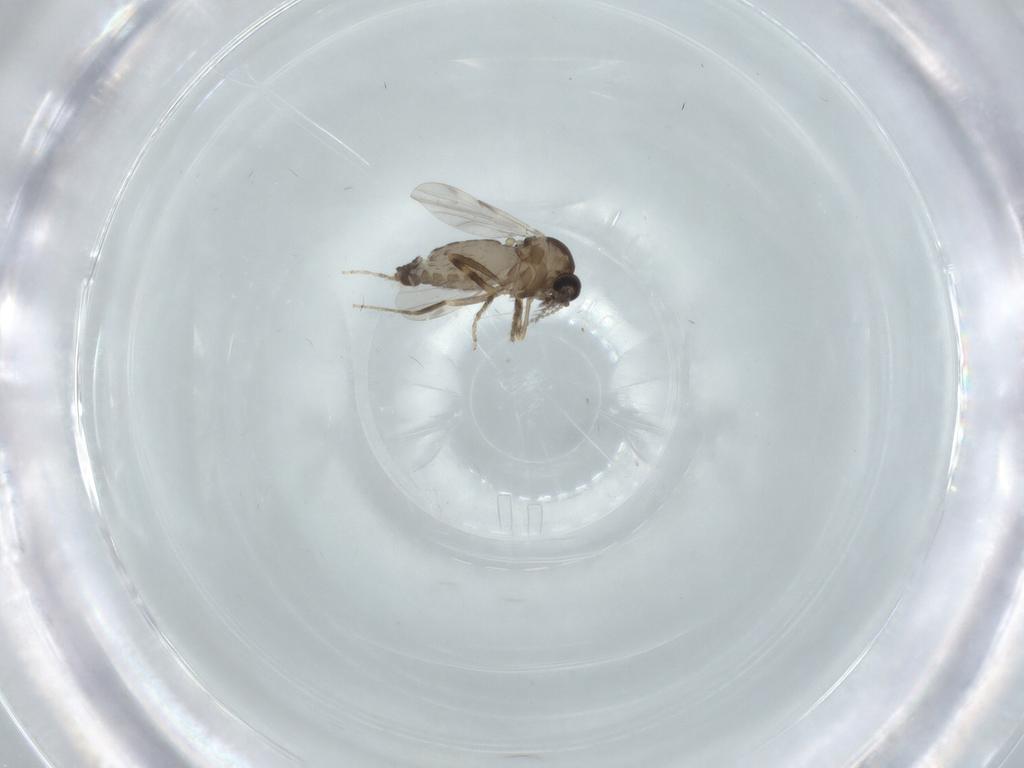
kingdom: Animalia
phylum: Arthropoda
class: Insecta
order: Diptera
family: Ceratopogonidae
